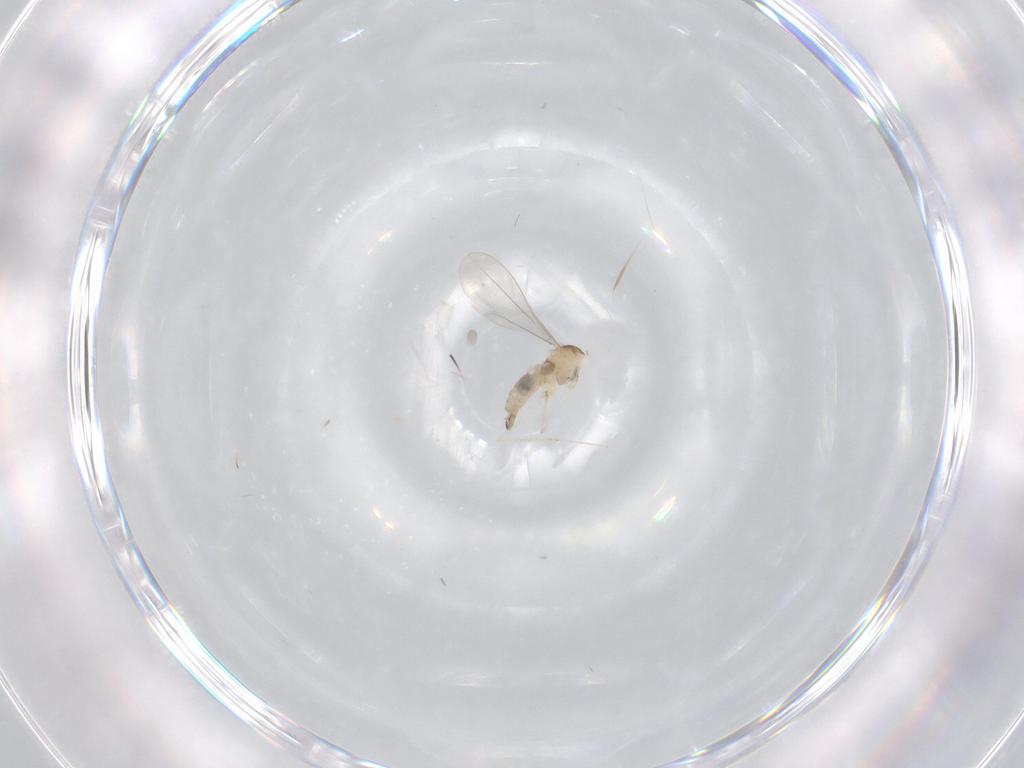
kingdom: Animalia
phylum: Arthropoda
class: Insecta
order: Diptera
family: Cecidomyiidae
